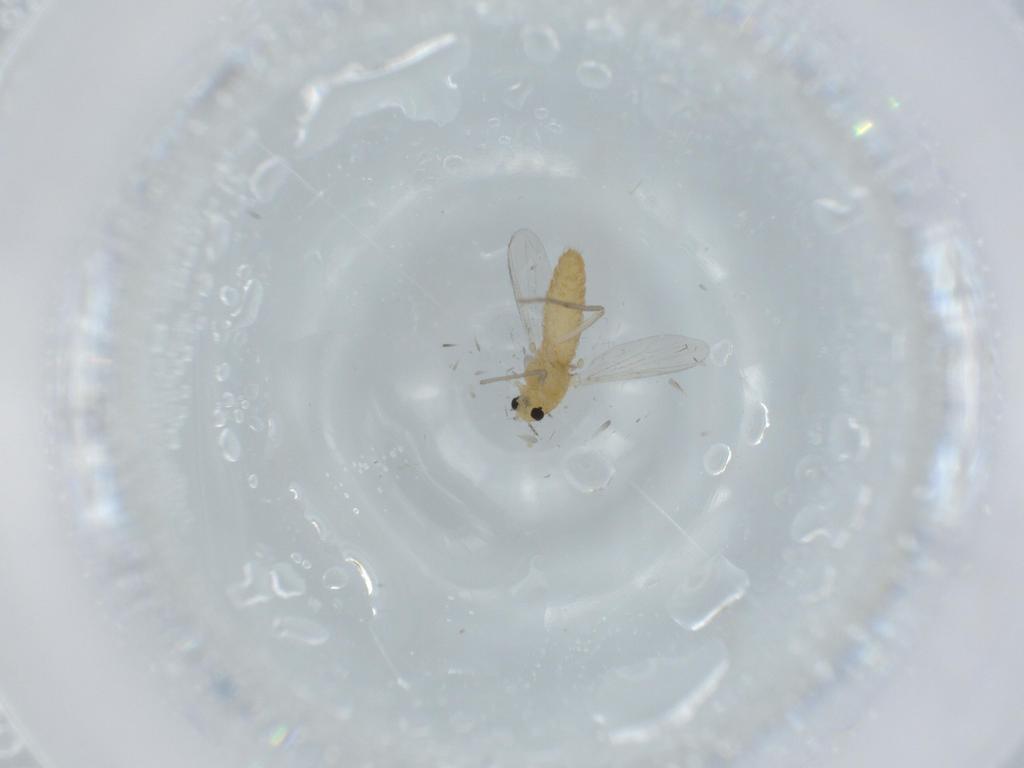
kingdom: Animalia
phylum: Arthropoda
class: Insecta
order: Diptera
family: Chironomidae
